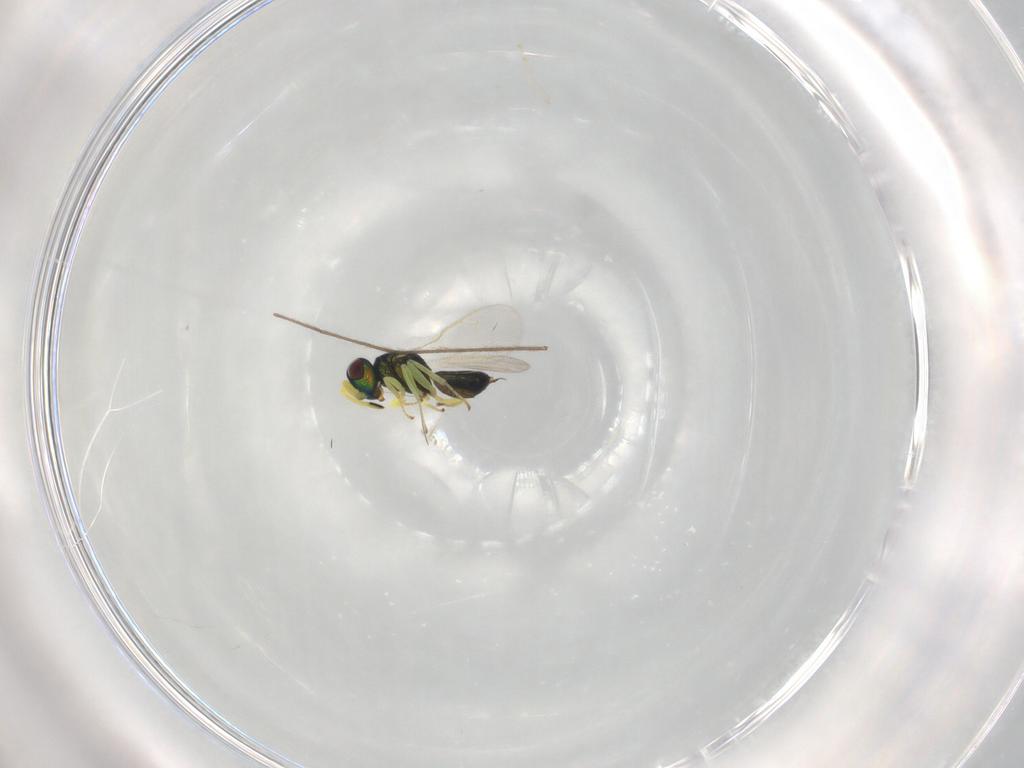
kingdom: Animalia
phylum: Arthropoda
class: Insecta
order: Hymenoptera
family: Pteromalidae
